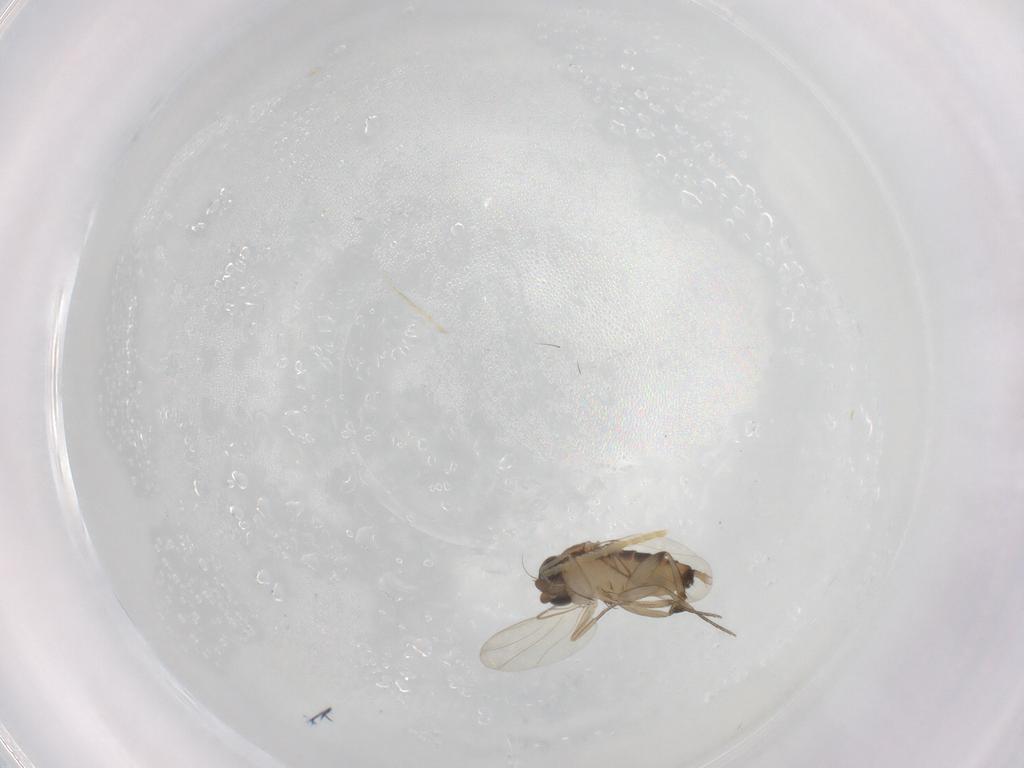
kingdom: Animalia
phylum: Arthropoda
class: Insecta
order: Diptera
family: Phoridae
